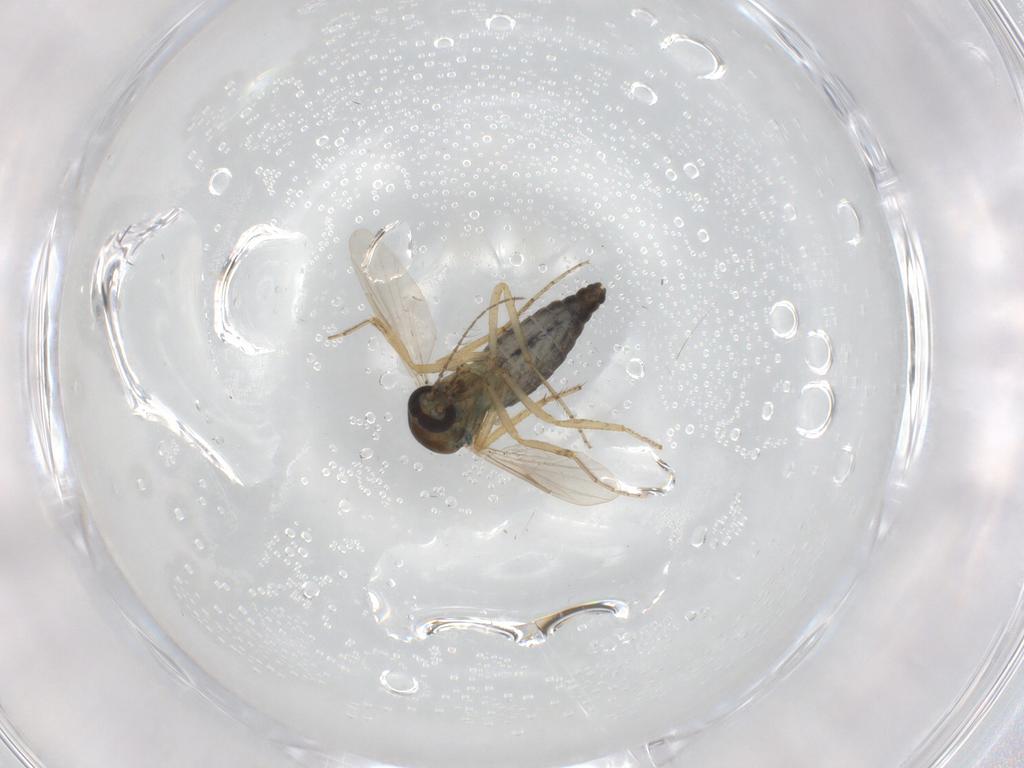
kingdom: Animalia
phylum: Arthropoda
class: Insecta
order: Diptera
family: Ceratopogonidae
